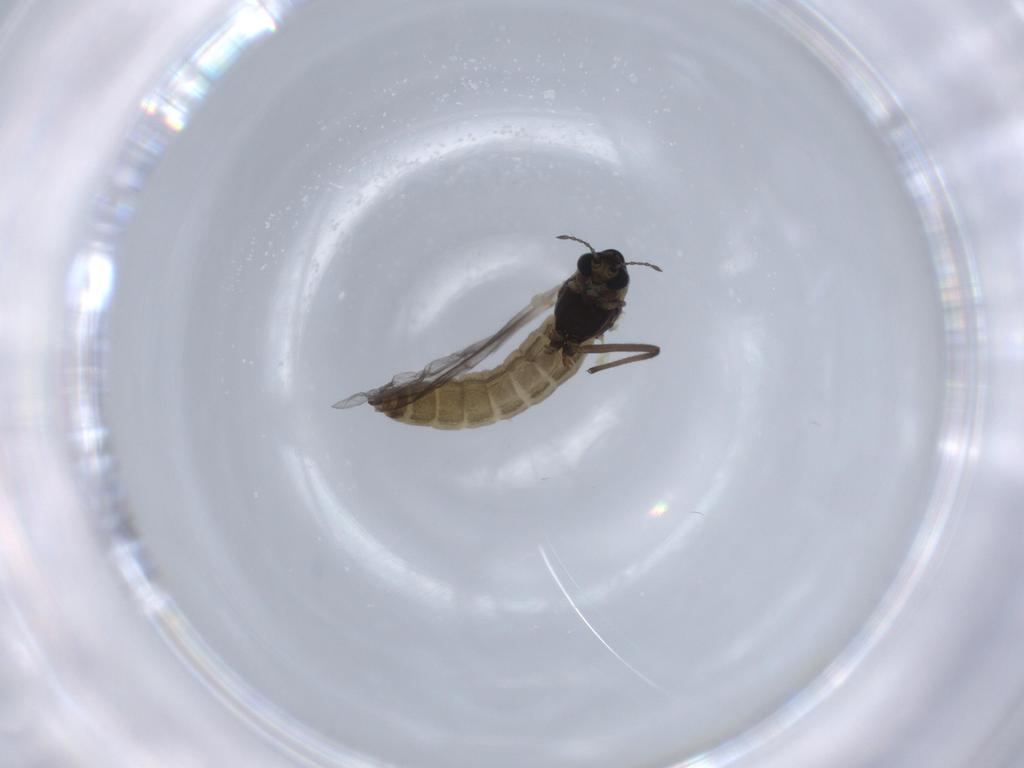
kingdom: Animalia
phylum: Arthropoda
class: Insecta
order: Diptera
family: Chironomidae
